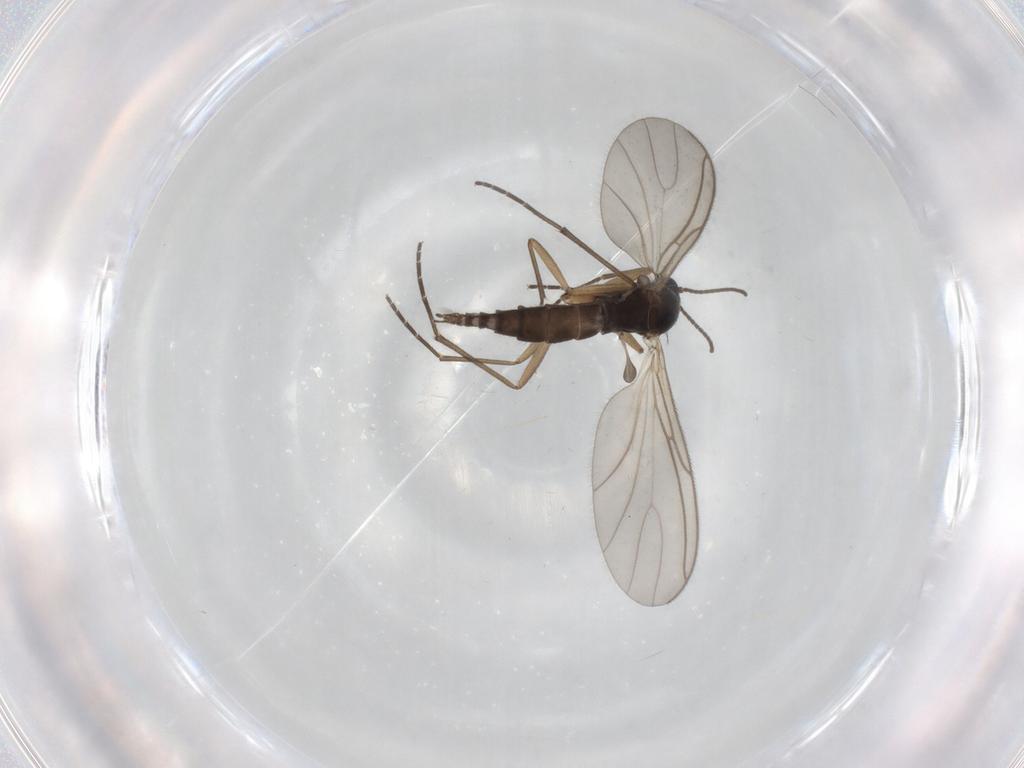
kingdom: Animalia
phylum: Arthropoda
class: Insecta
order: Diptera
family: Sciaridae
